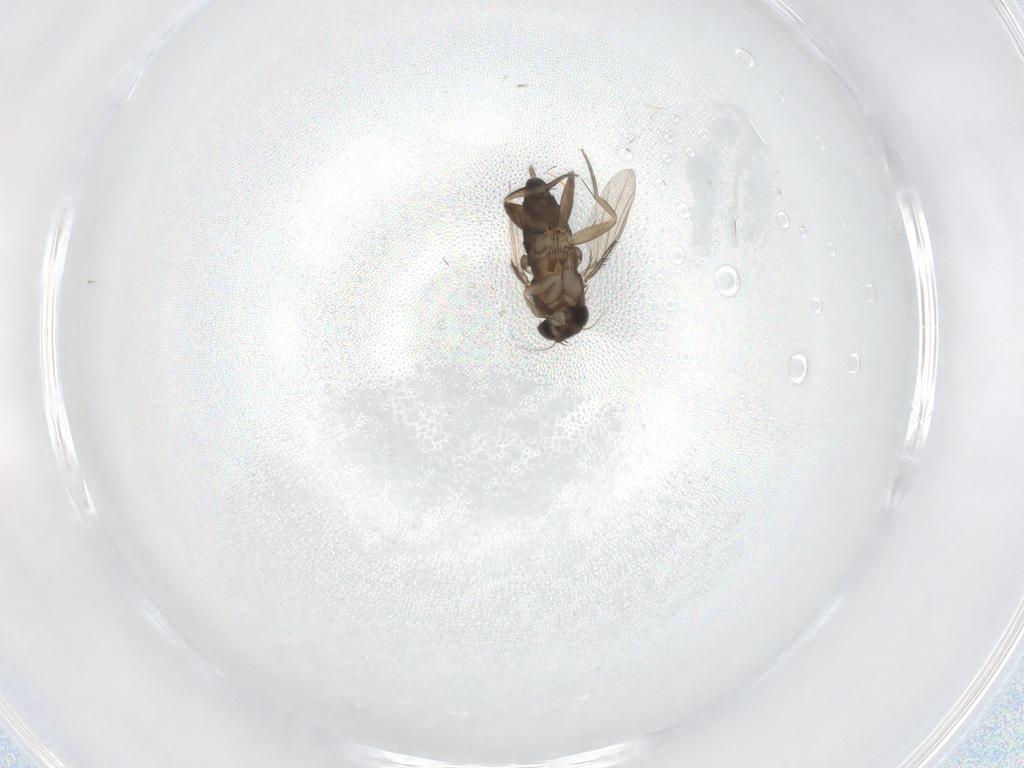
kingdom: Animalia
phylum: Arthropoda
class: Insecta
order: Diptera
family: Phoridae
